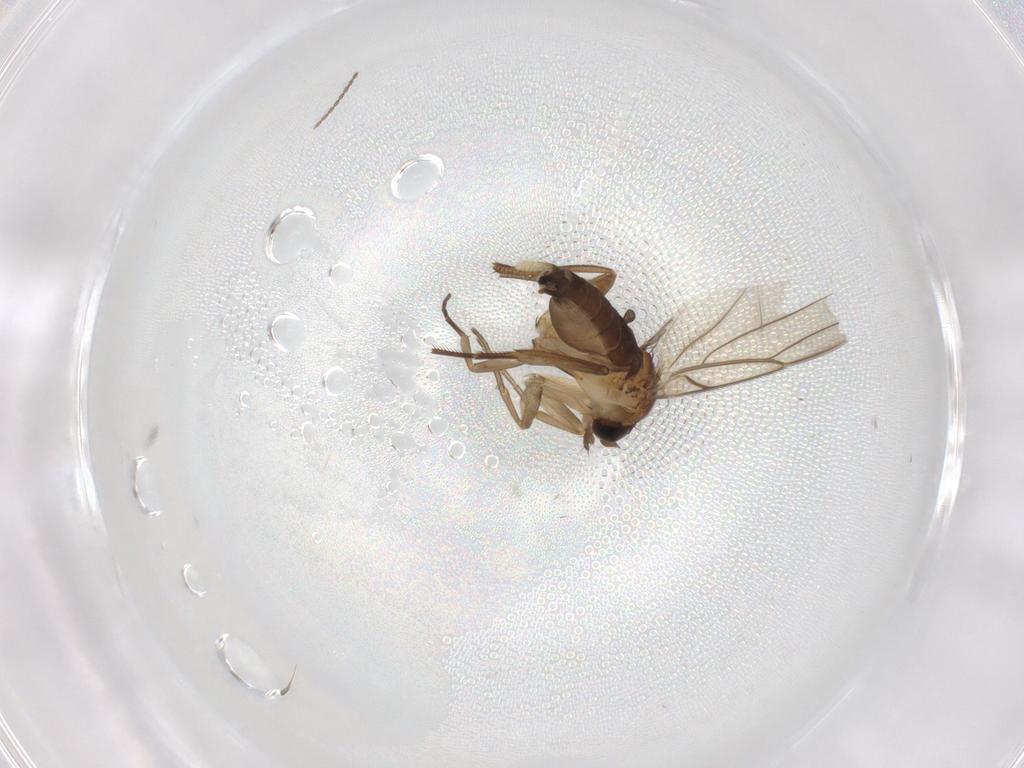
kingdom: Animalia
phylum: Arthropoda
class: Insecta
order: Diptera
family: Phoridae
